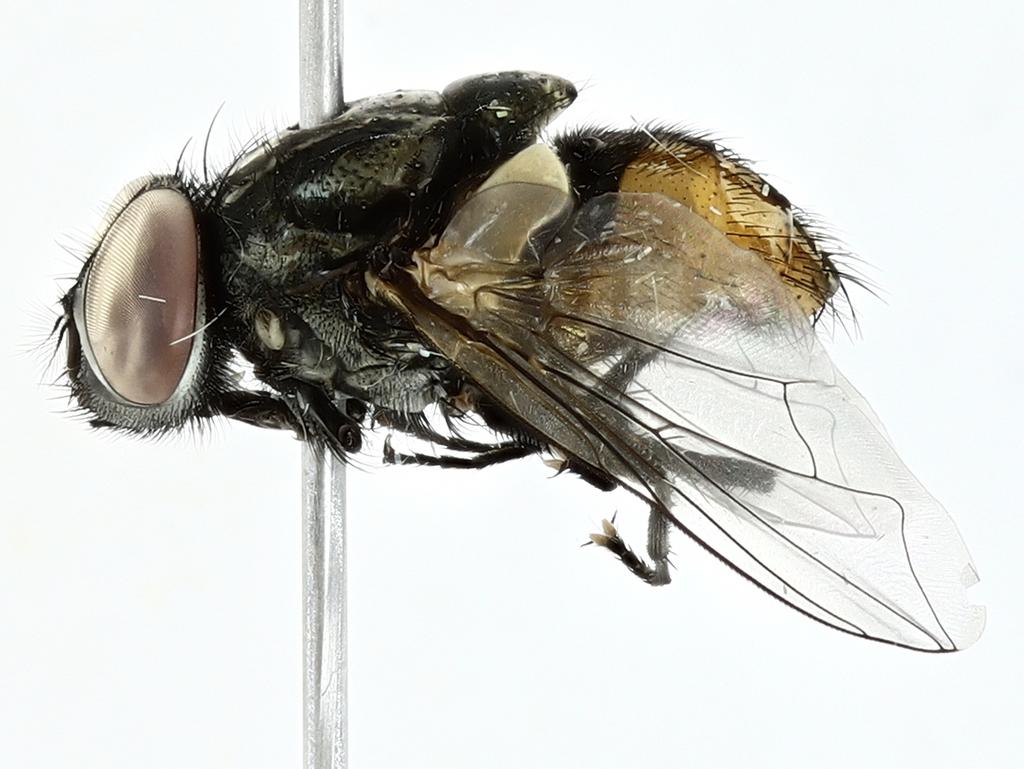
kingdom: Animalia
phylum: Arthropoda
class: Insecta
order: Diptera
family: Muscidae
